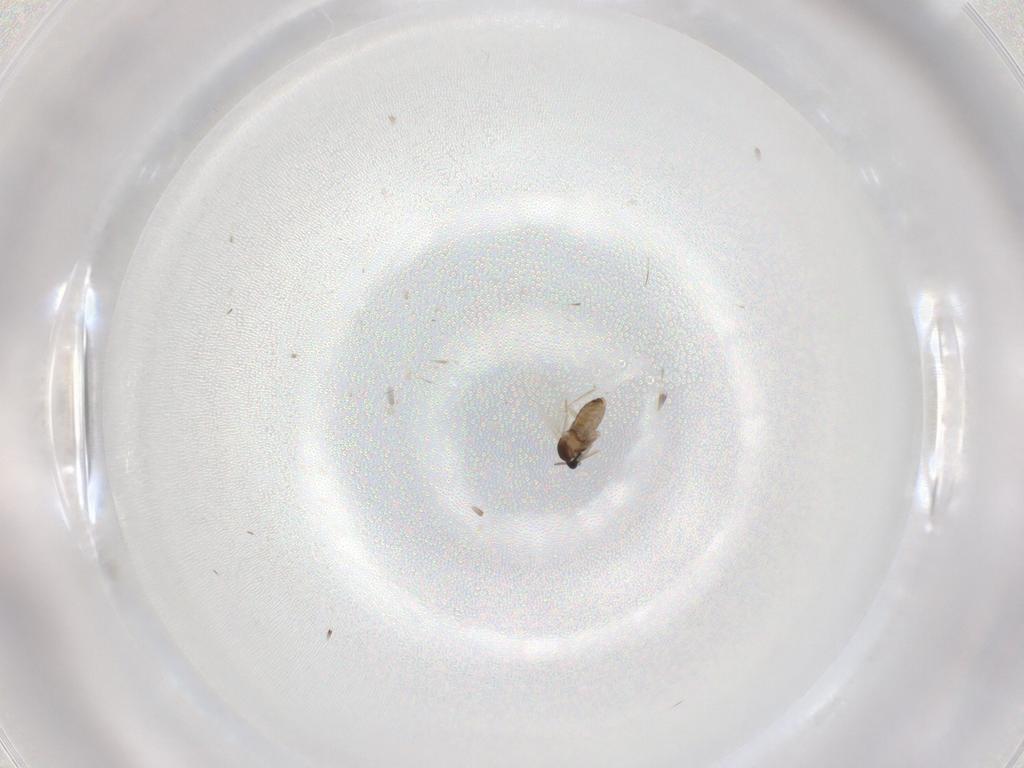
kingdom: Animalia
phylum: Arthropoda
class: Insecta
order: Diptera
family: Cecidomyiidae
